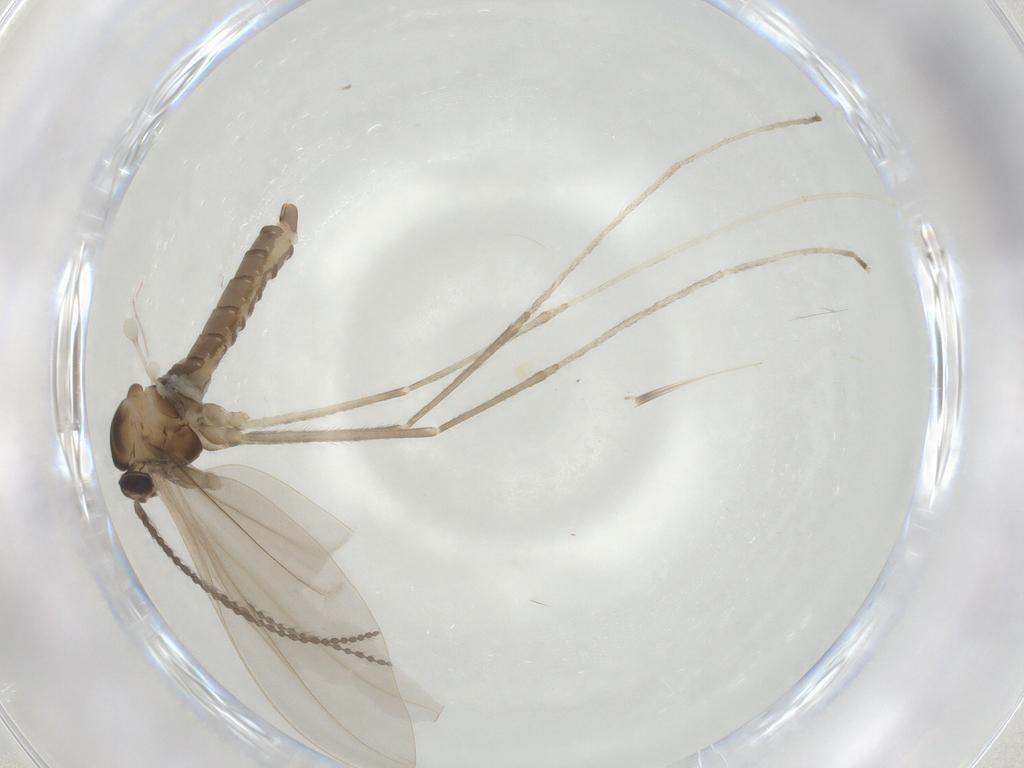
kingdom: Animalia
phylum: Arthropoda
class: Insecta
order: Diptera
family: Cecidomyiidae
